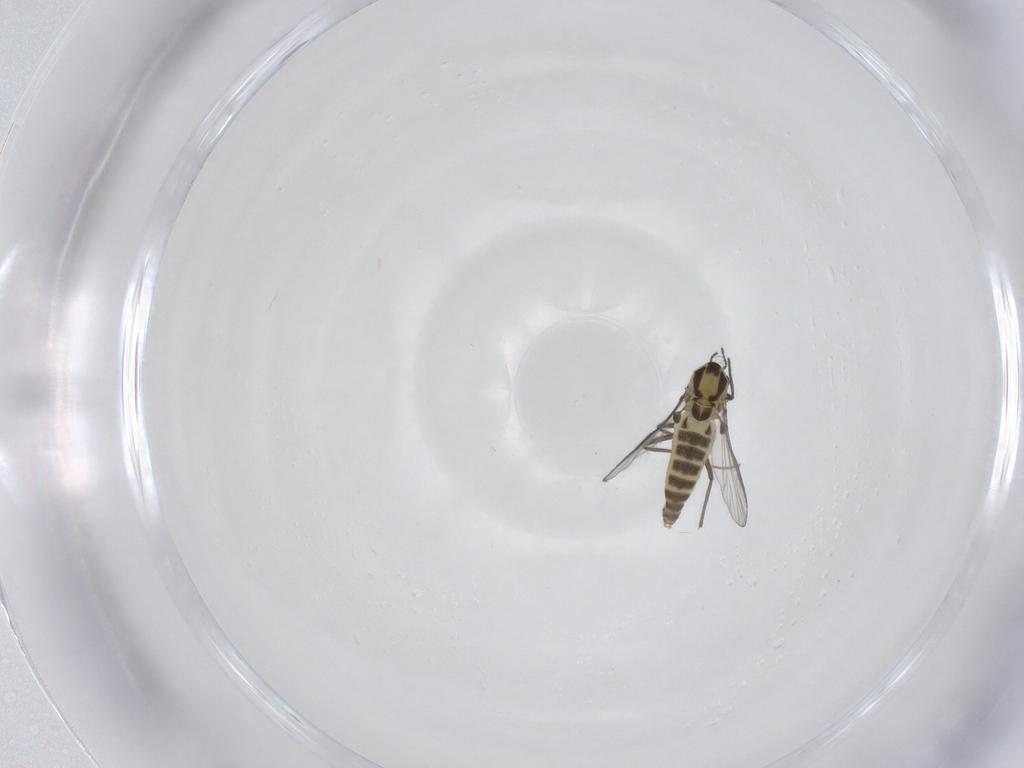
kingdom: Animalia
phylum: Arthropoda
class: Insecta
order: Diptera
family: Chironomidae
